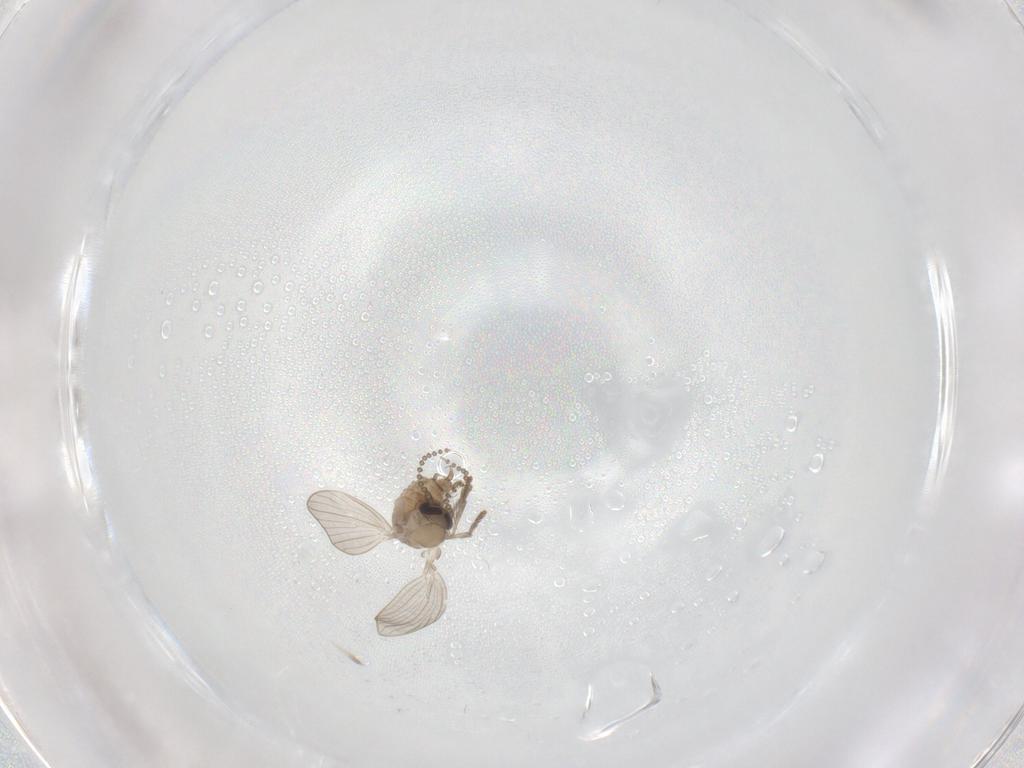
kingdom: Animalia
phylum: Arthropoda
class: Insecta
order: Diptera
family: Psychodidae
